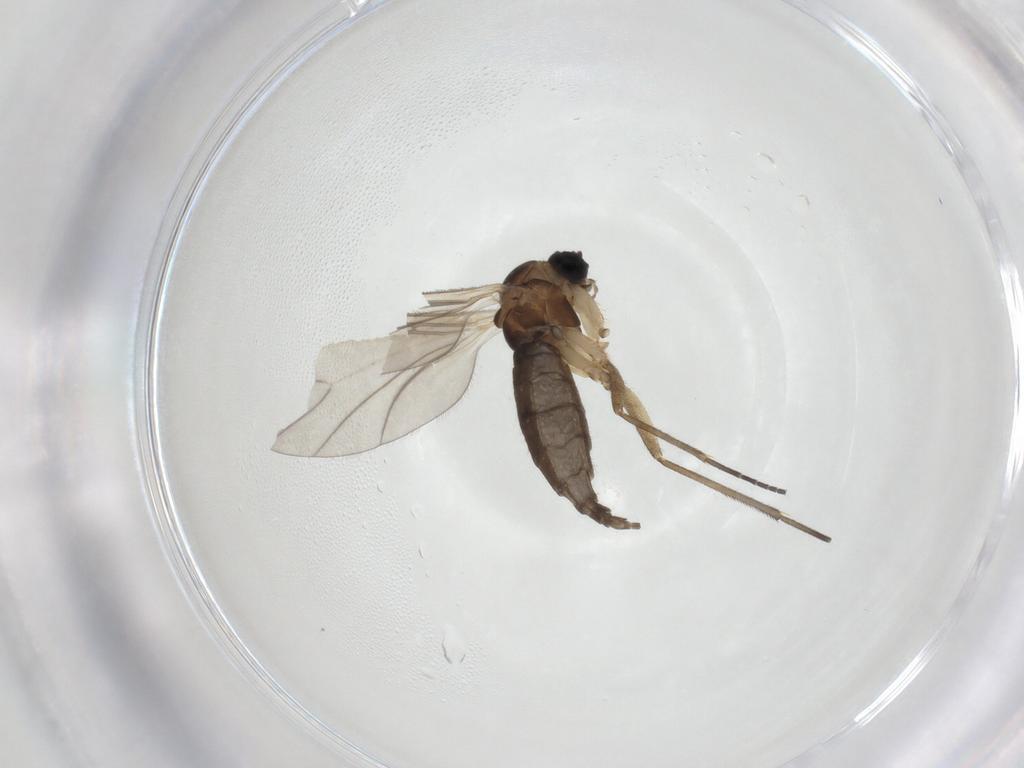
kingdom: Animalia
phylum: Arthropoda
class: Insecta
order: Diptera
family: Sciaridae
